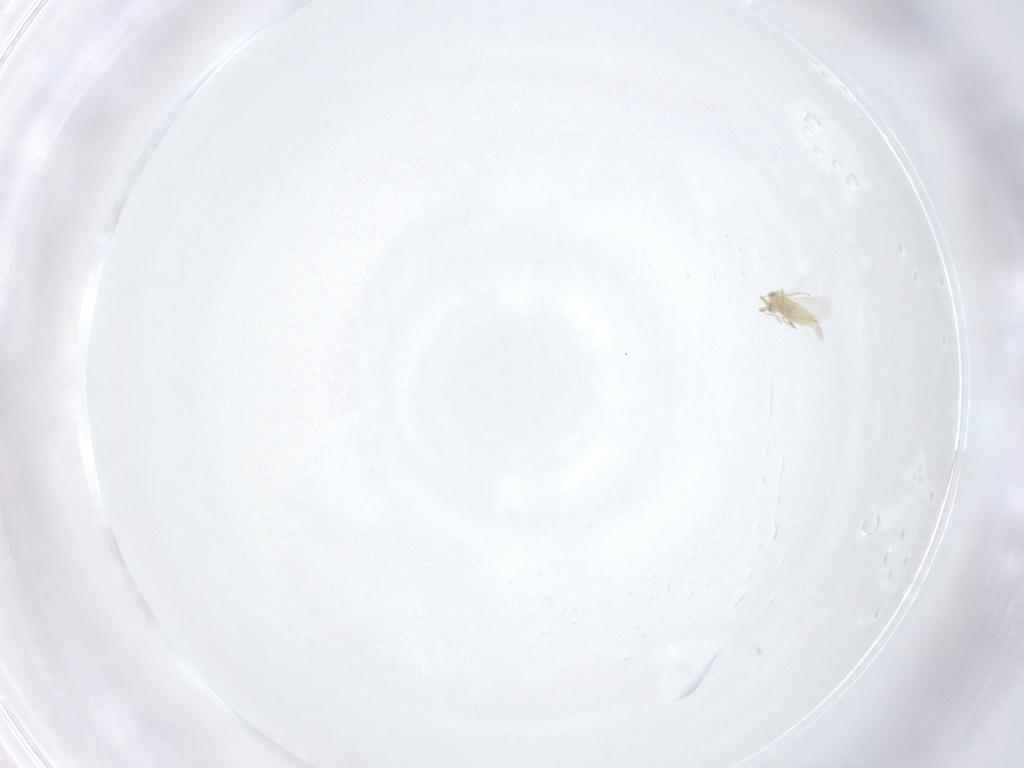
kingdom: Animalia
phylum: Arthropoda
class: Insecta
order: Hymenoptera
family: Aphelinidae
